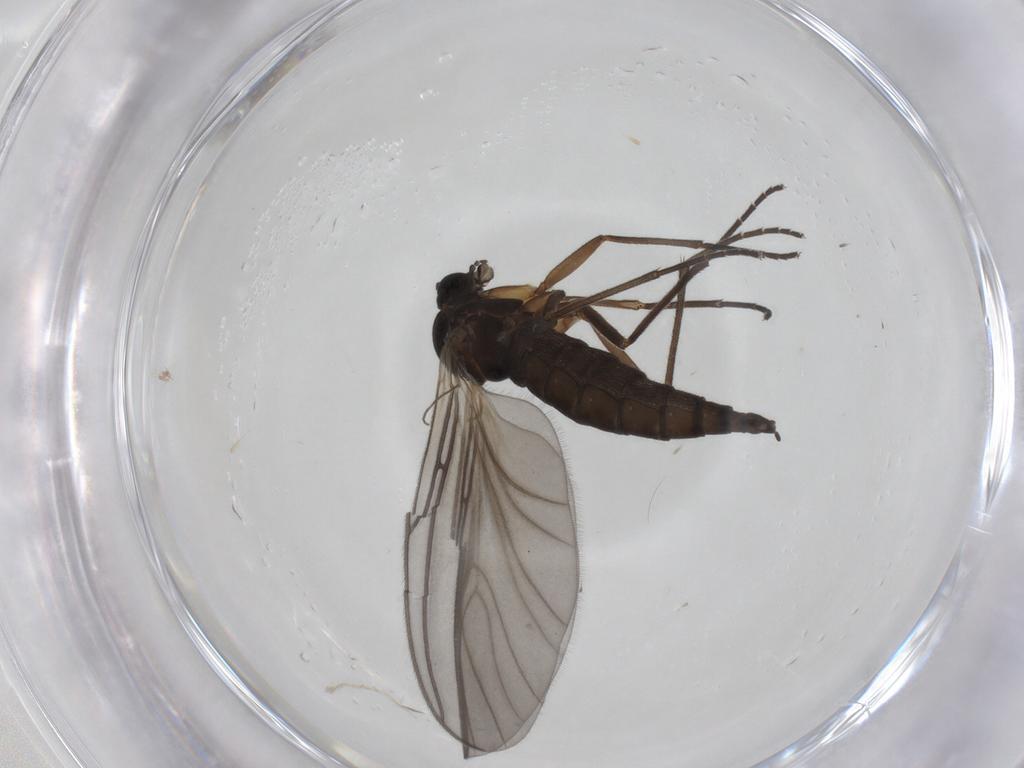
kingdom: Animalia
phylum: Arthropoda
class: Insecta
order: Diptera
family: Sciaridae
